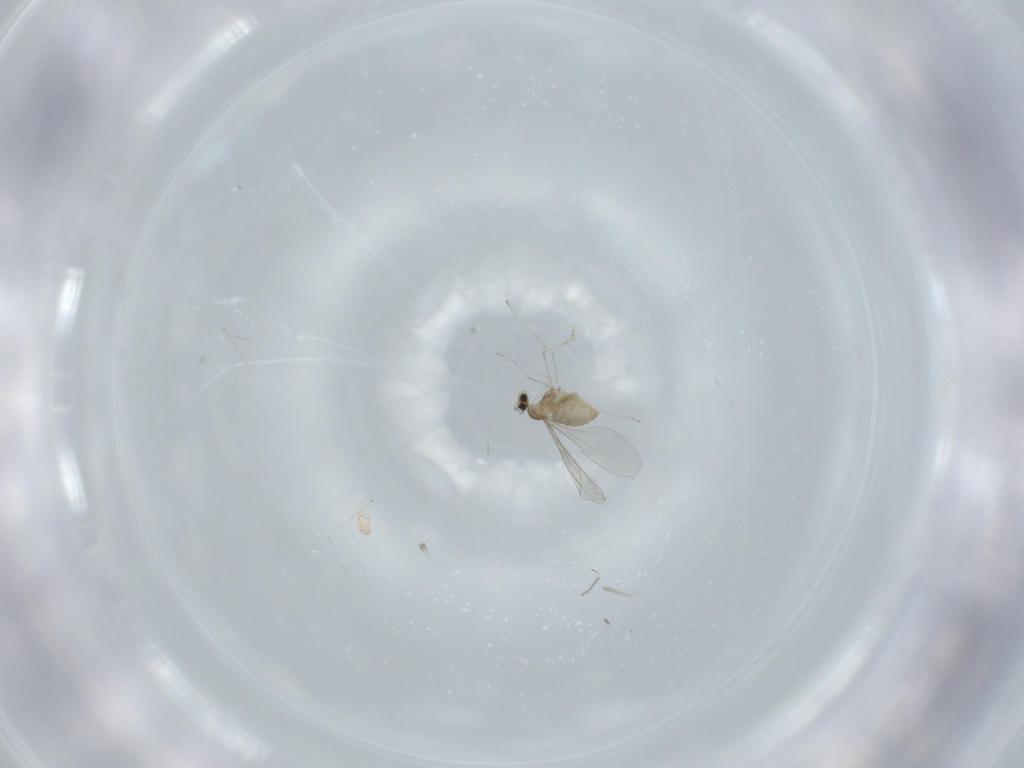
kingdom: Animalia
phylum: Arthropoda
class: Insecta
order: Diptera
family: Cecidomyiidae
